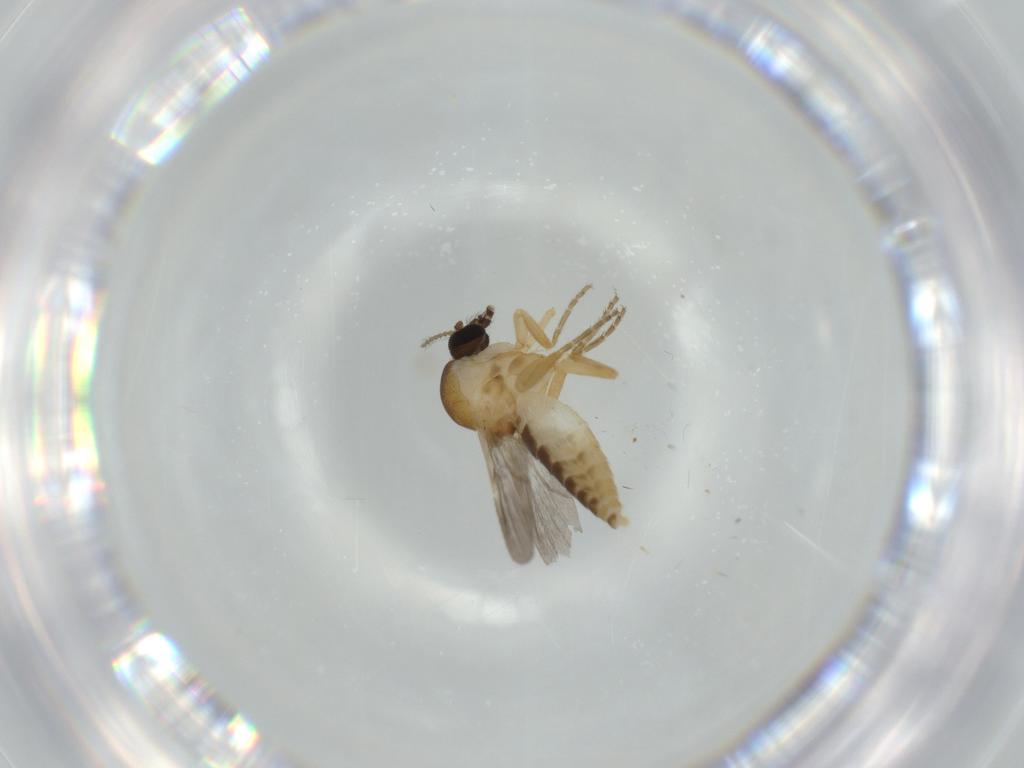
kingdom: Animalia
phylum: Arthropoda
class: Insecta
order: Diptera
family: Ceratopogonidae
